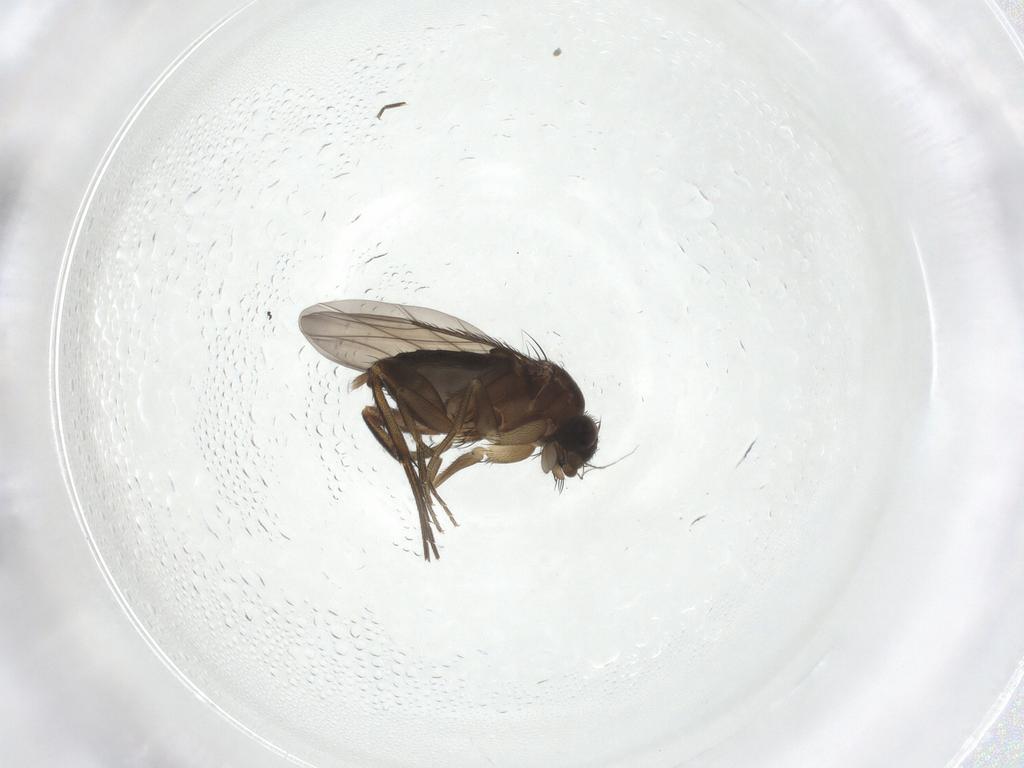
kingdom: Animalia
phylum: Arthropoda
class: Insecta
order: Diptera
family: Phoridae
